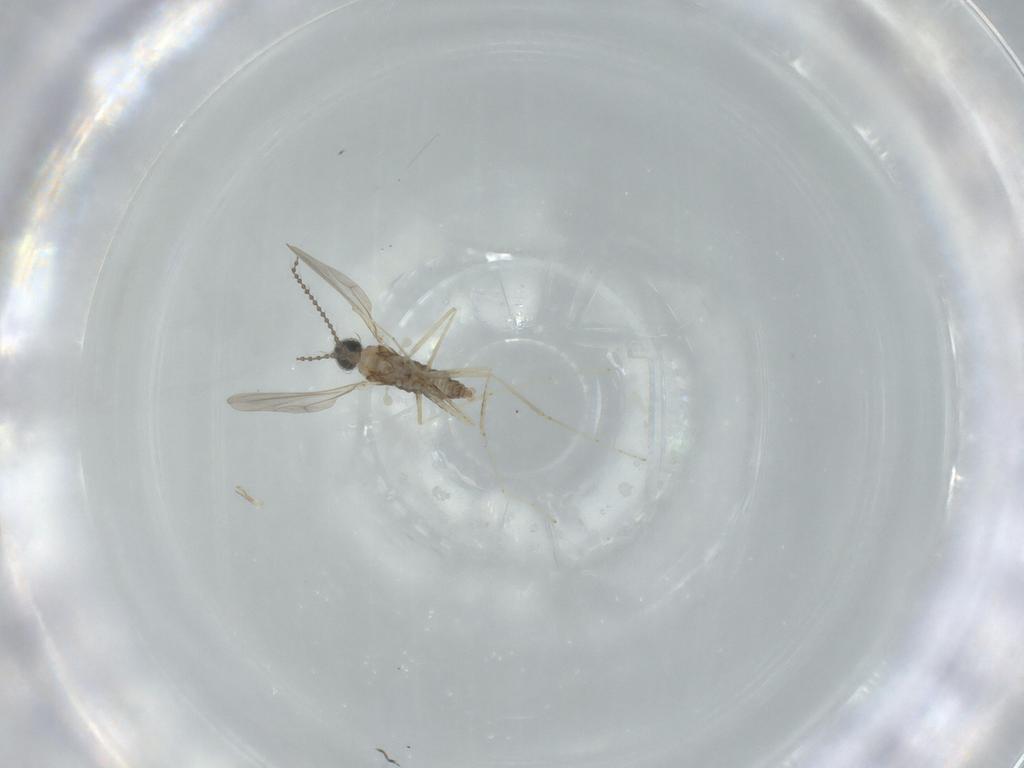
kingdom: Animalia
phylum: Arthropoda
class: Insecta
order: Diptera
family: Cecidomyiidae
